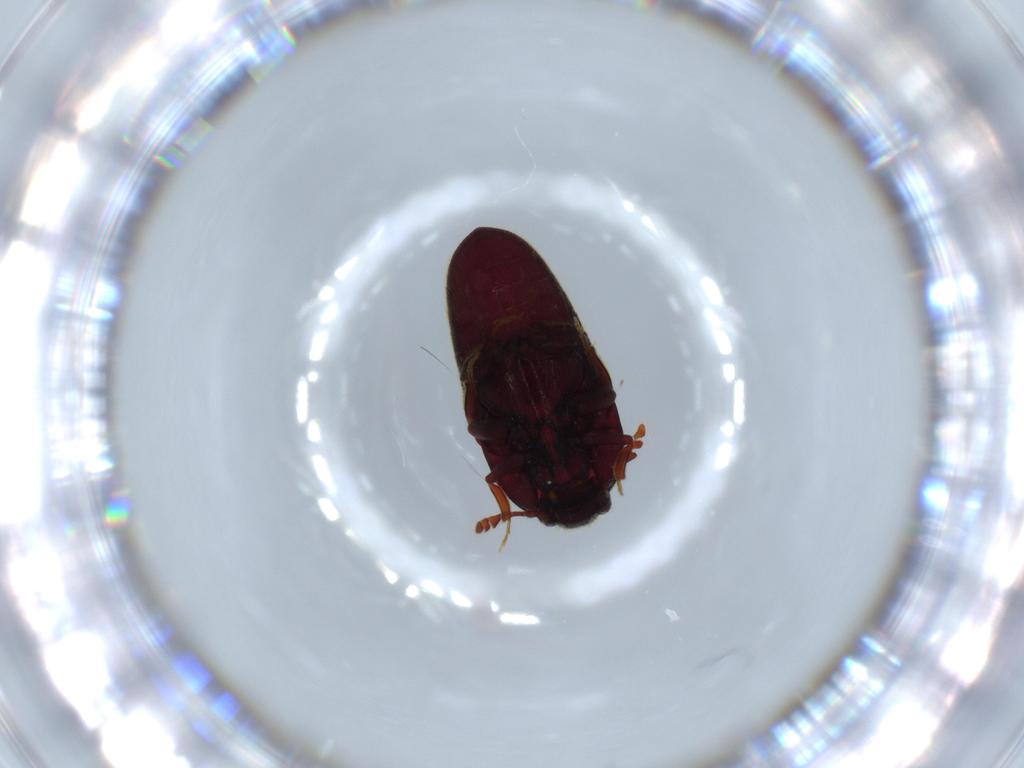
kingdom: Animalia
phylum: Arthropoda
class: Insecta
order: Coleoptera
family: Throscidae
